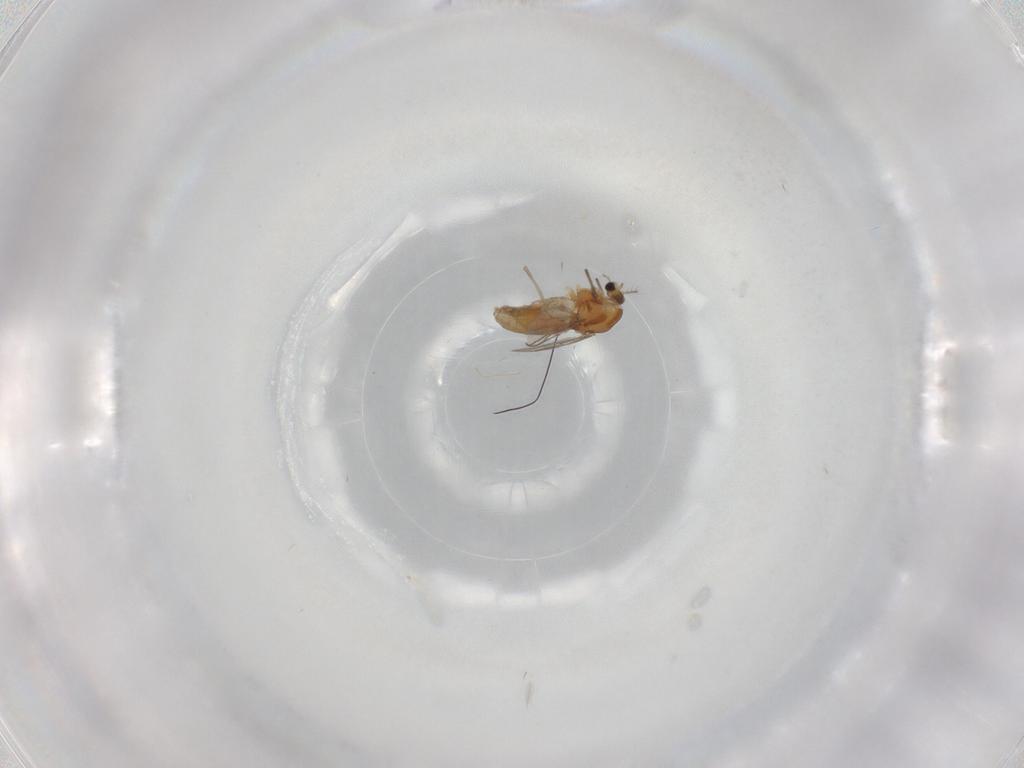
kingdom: Animalia
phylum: Arthropoda
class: Insecta
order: Diptera
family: Chironomidae
